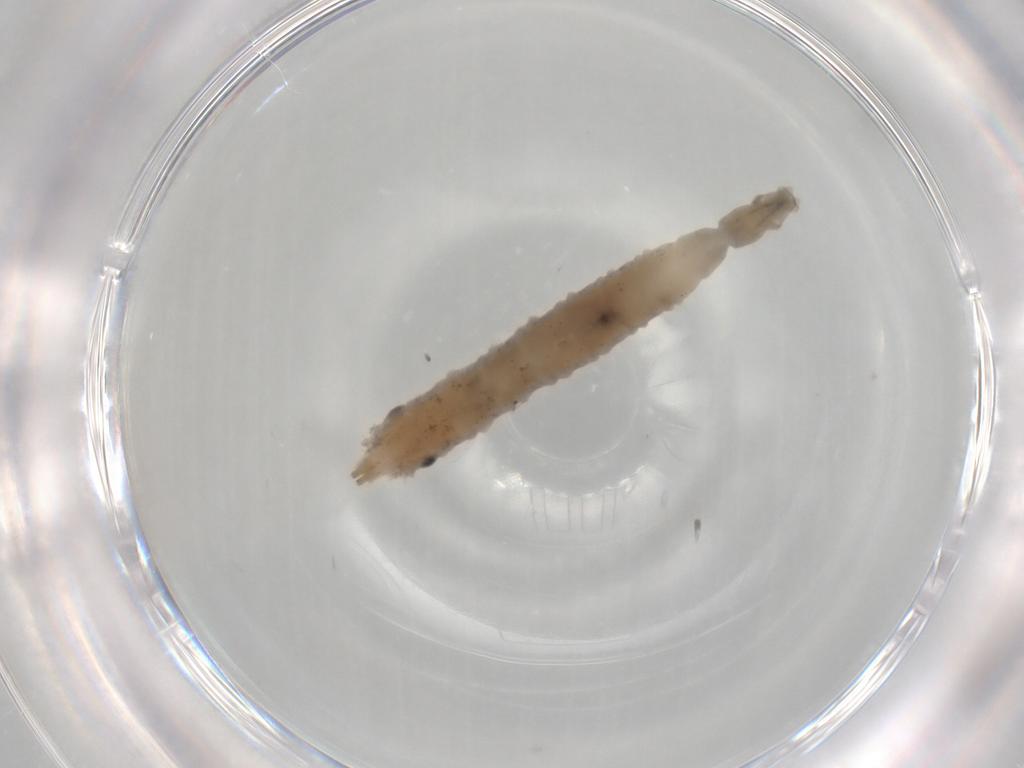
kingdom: Animalia
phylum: Arthropoda
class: Insecta
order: Diptera
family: Drosophilidae
